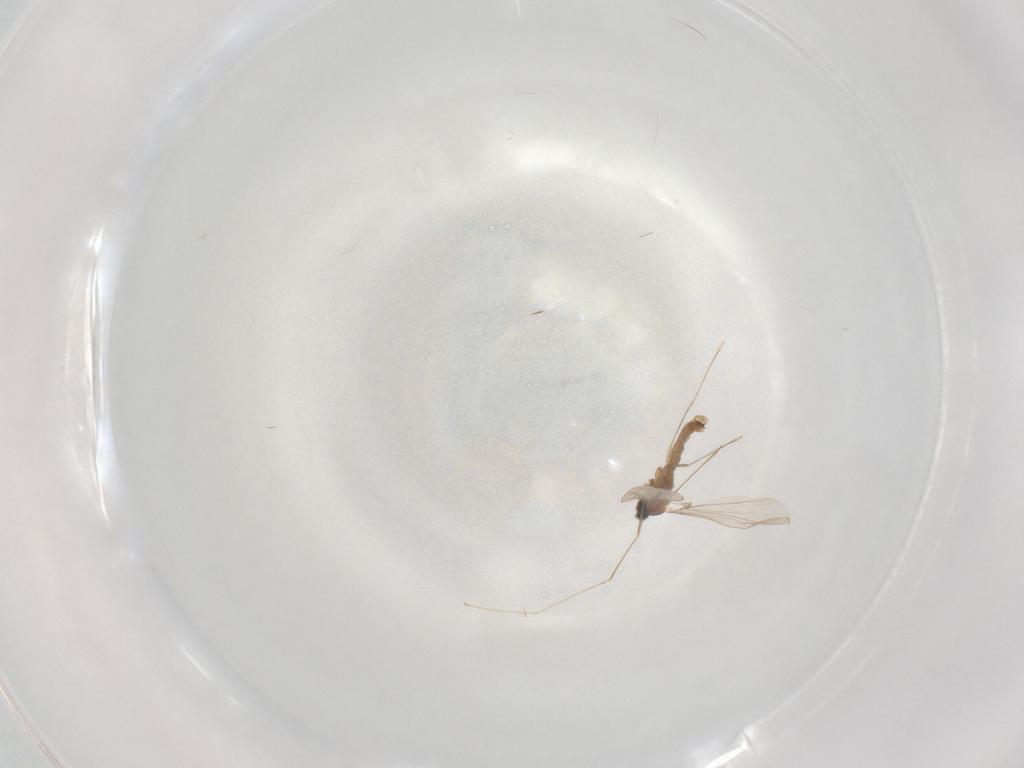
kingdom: Animalia
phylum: Arthropoda
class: Insecta
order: Diptera
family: Cecidomyiidae
